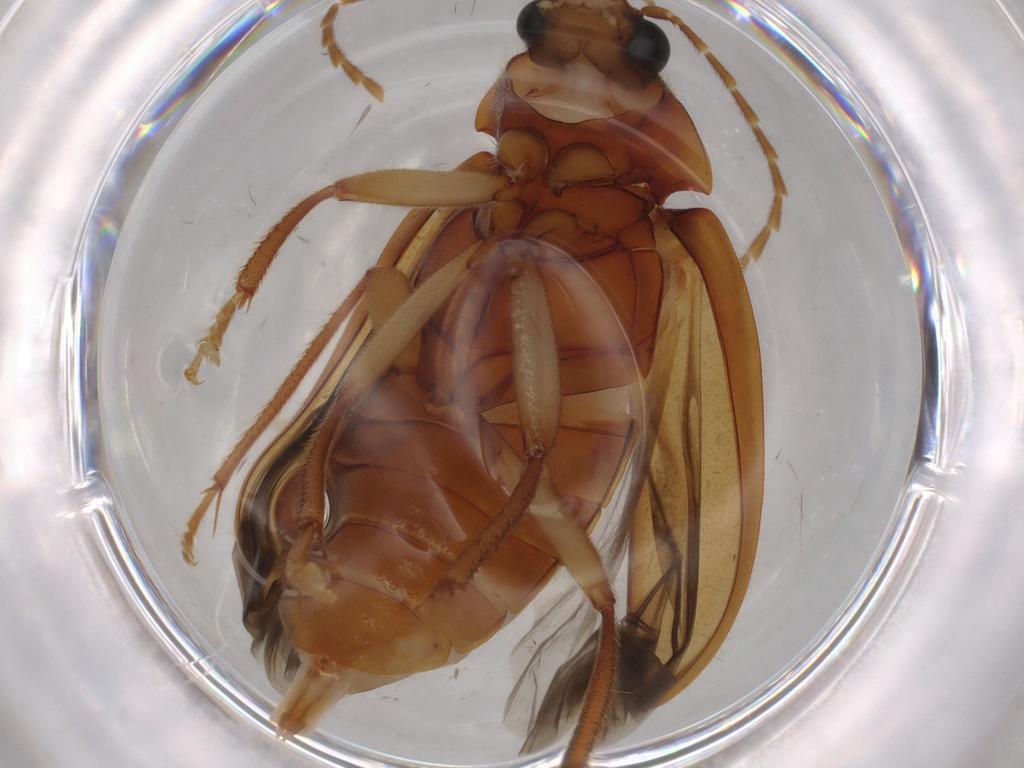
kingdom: Animalia
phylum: Arthropoda
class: Insecta
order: Coleoptera
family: Ptilodactylidae
